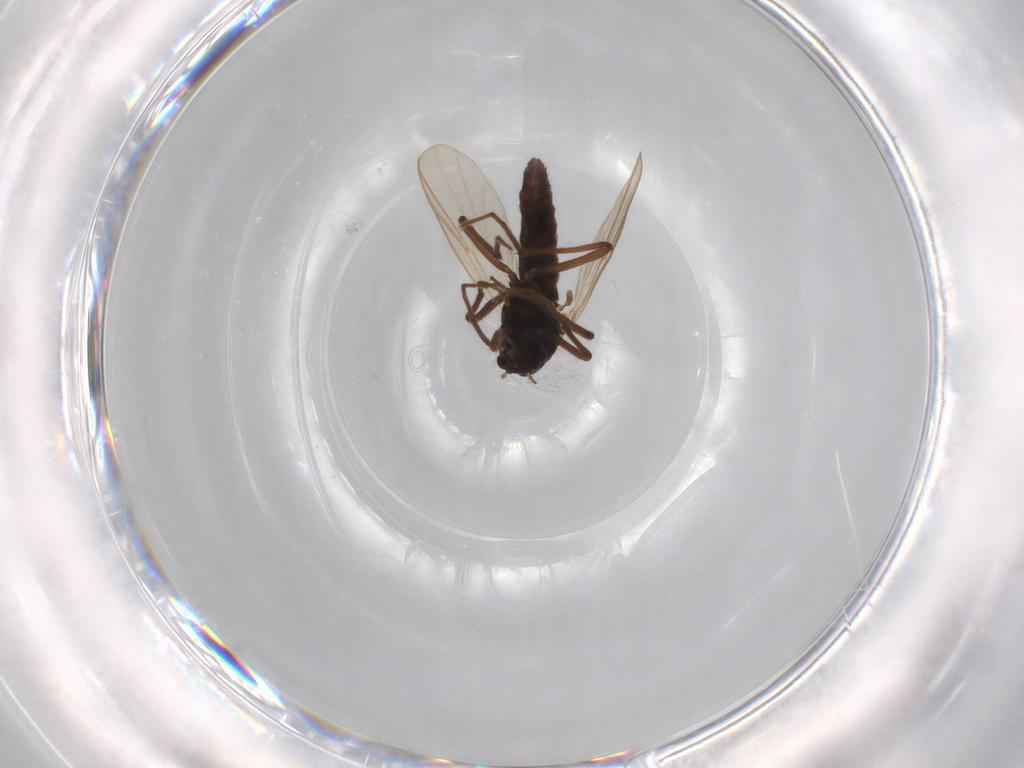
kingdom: Animalia
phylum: Arthropoda
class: Insecta
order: Diptera
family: Chironomidae
